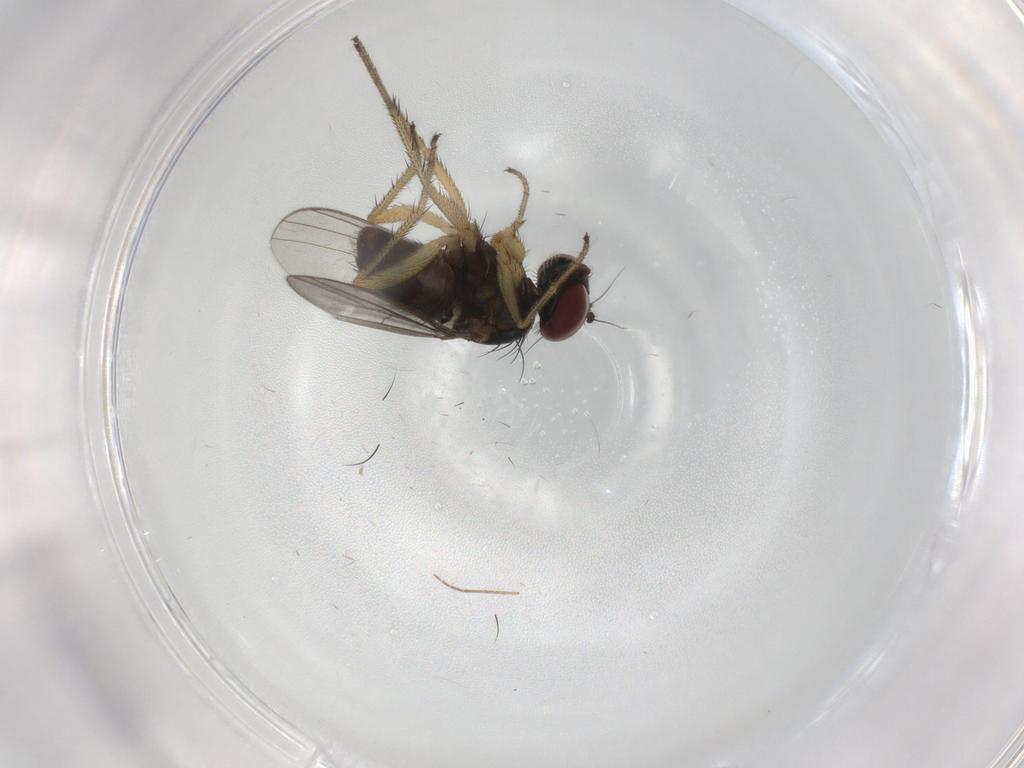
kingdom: Animalia
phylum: Arthropoda
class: Insecta
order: Diptera
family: Dolichopodidae
